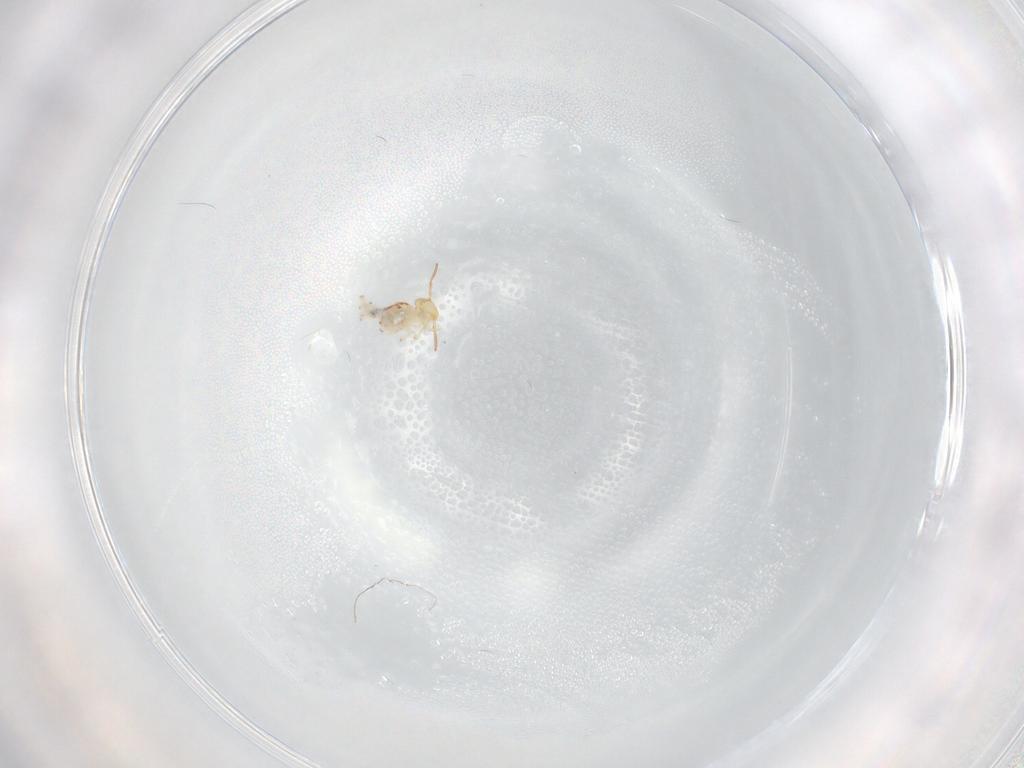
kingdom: Animalia
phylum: Arthropoda
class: Collembola
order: Symphypleona
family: Bourletiellidae
